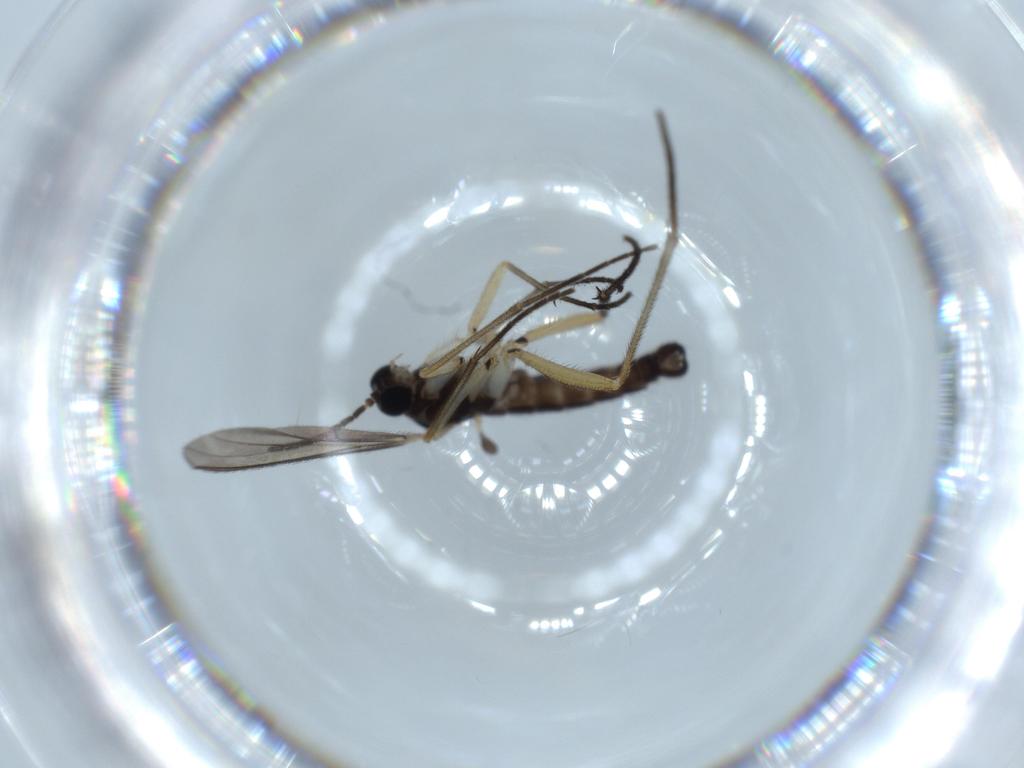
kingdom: Animalia
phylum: Arthropoda
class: Insecta
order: Diptera
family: Sciaridae
